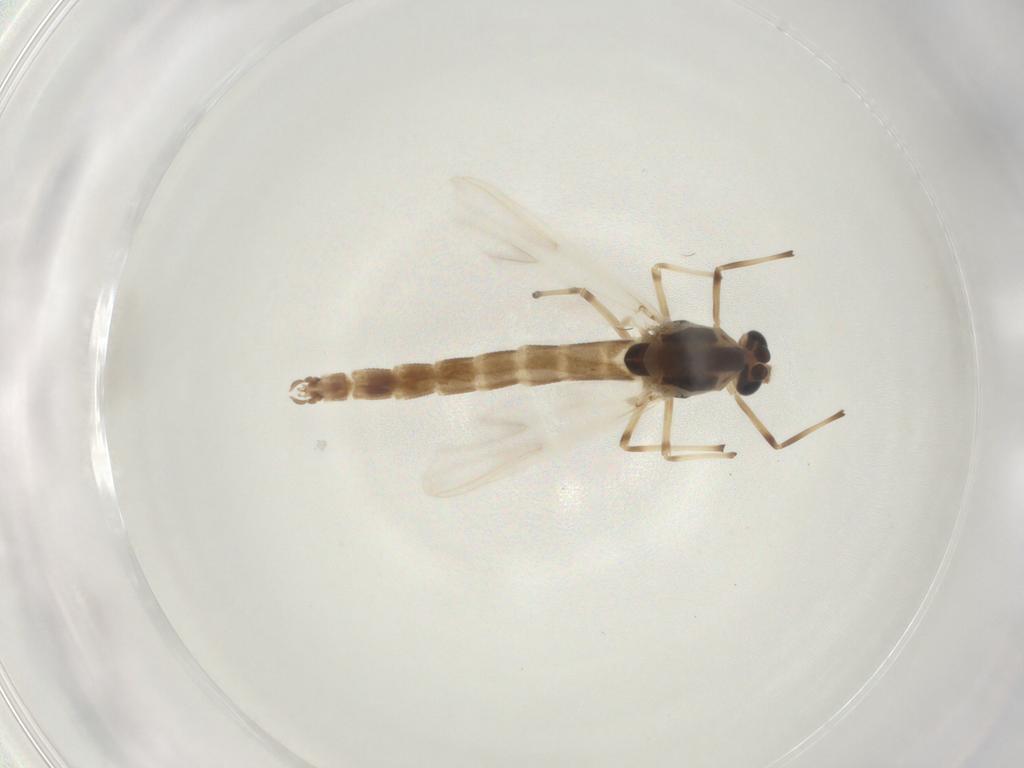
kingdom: Animalia
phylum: Arthropoda
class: Insecta
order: Diptera
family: Chironomidae
